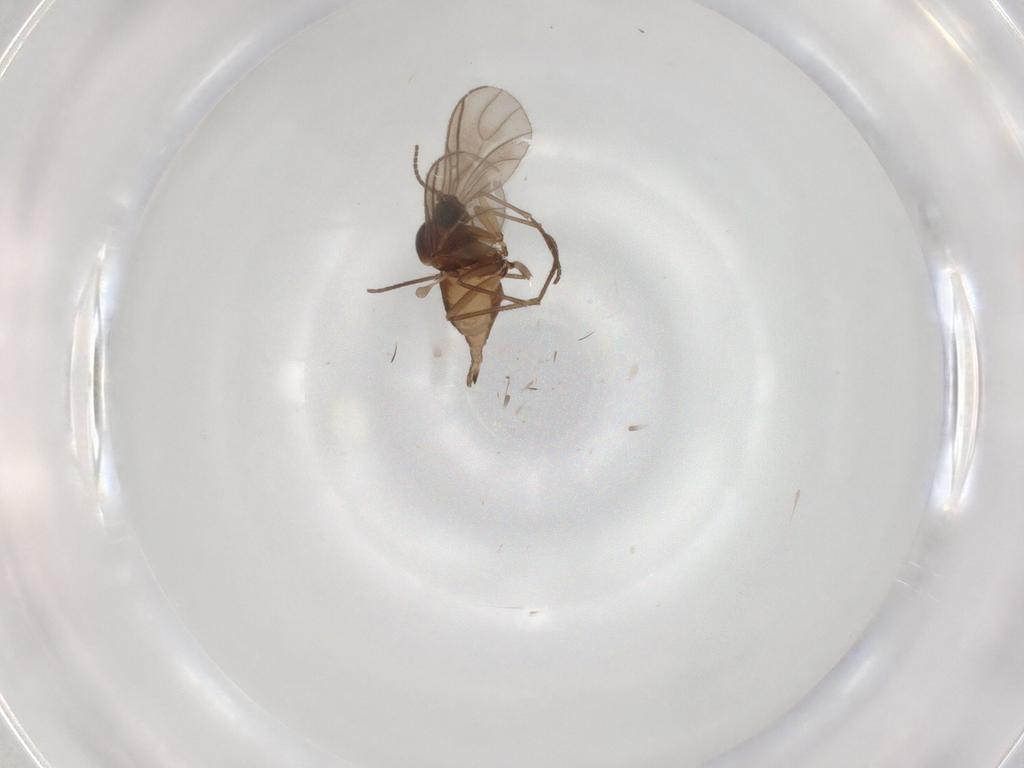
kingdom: Animalia
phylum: Arthropoda
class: Insecta
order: Diptera
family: Sciaridae
